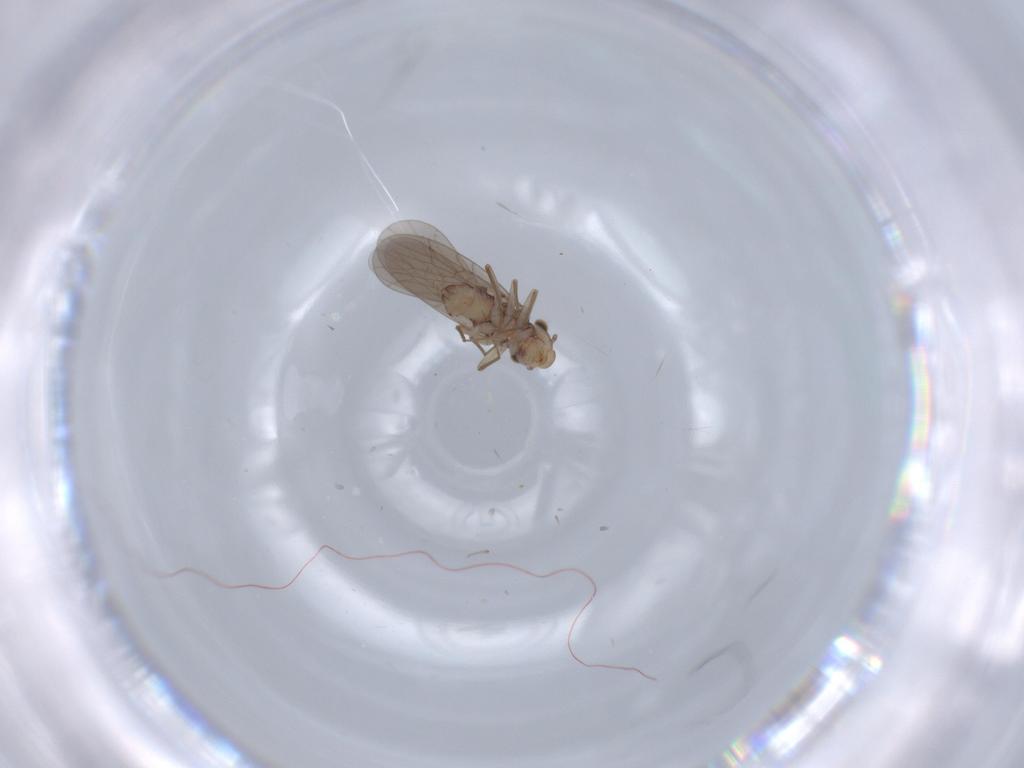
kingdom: Animalia
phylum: Arthropoda
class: Insecta
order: Psocodea
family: Lepidopsocidae
